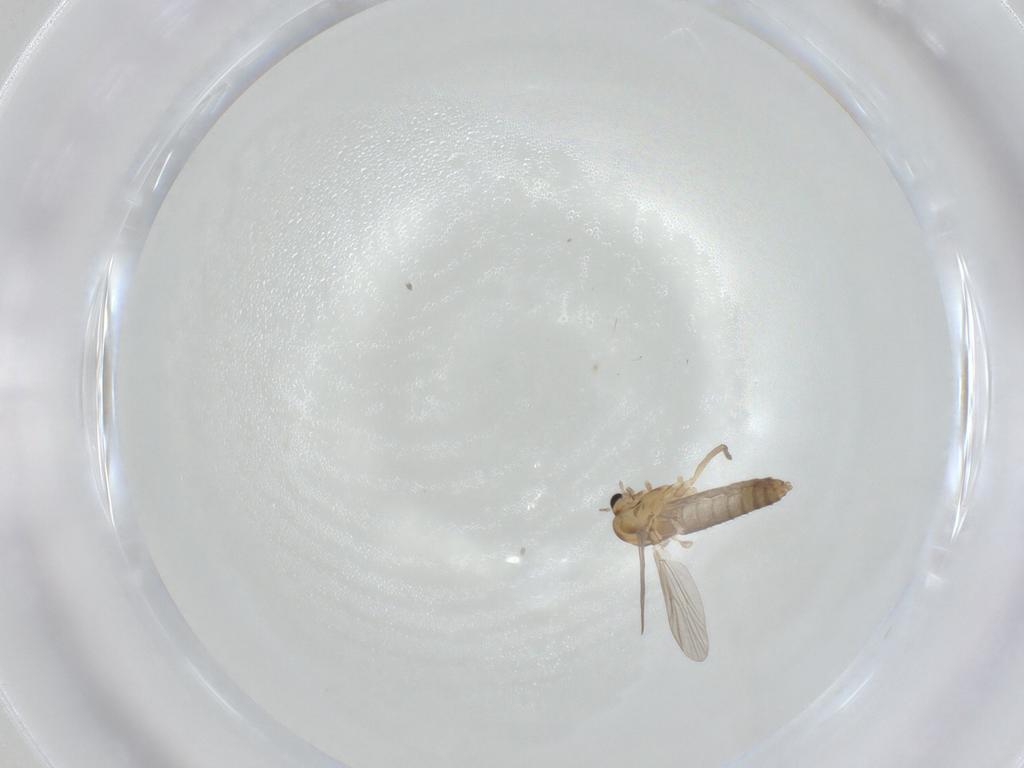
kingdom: Animalia
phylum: Arthropoda
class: Insecta
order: Diptera
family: Chironomidae
